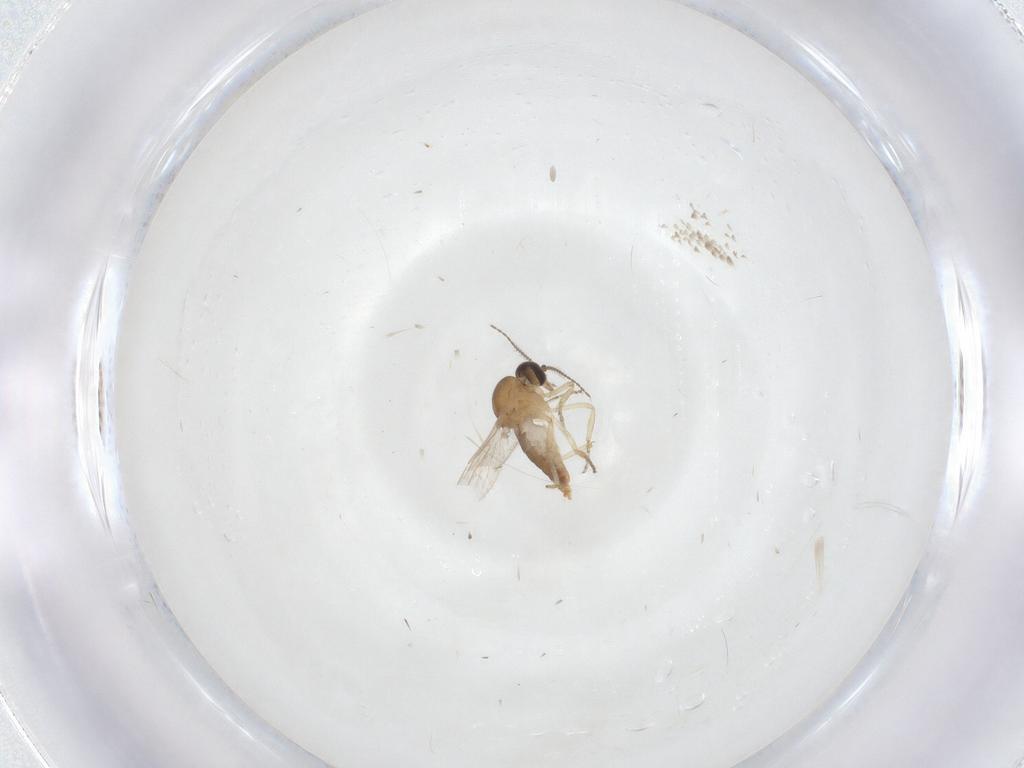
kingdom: Animalia
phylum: Arthropoda
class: Insecta
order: Diptera
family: Ceratopogonidae
